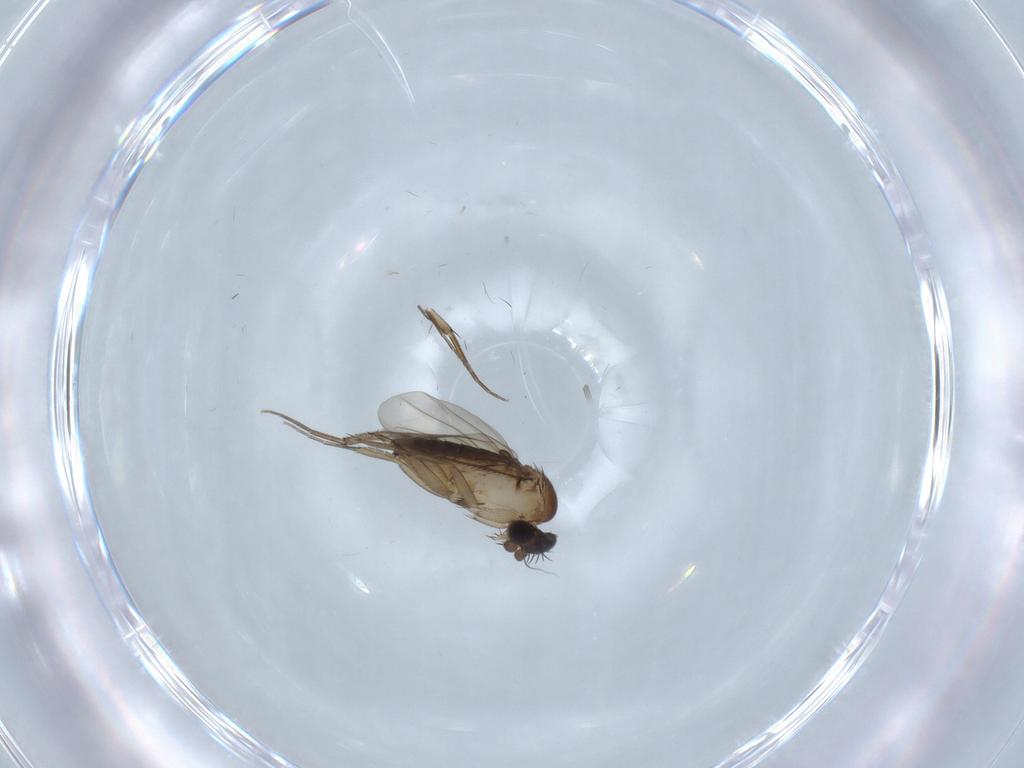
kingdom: Animalia
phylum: Arthropoda
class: Insecta
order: Diptera
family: Phoridae
